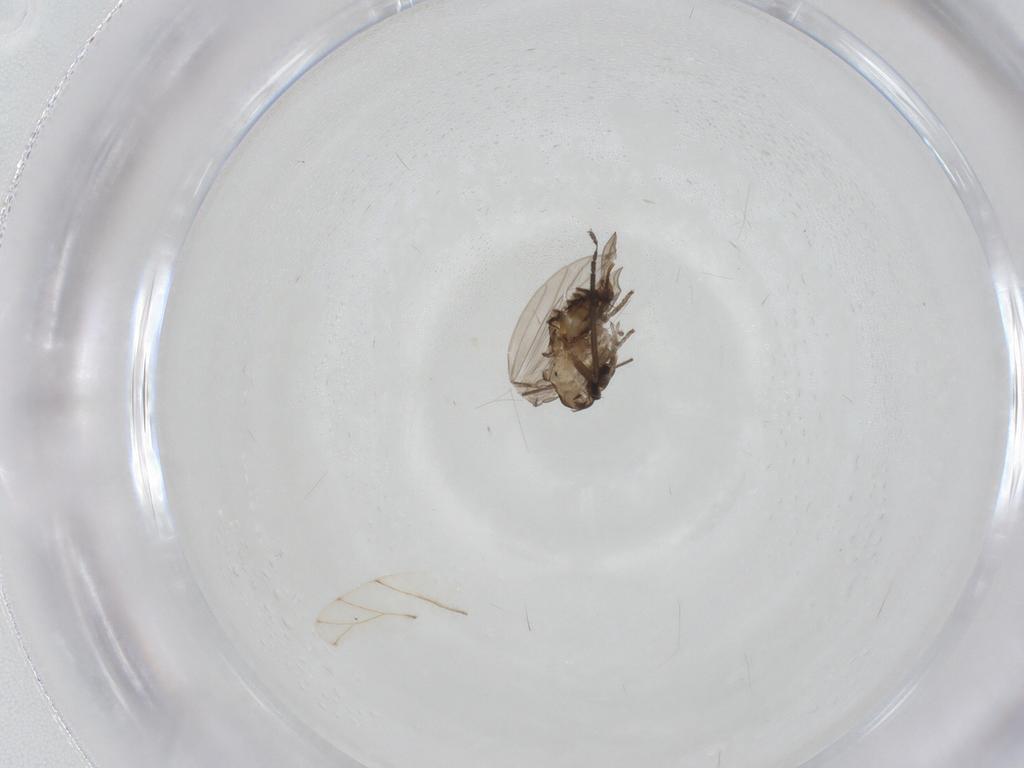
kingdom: Animalia
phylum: Arthropoda
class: Insecta
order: Diptera
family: Psychodidae
